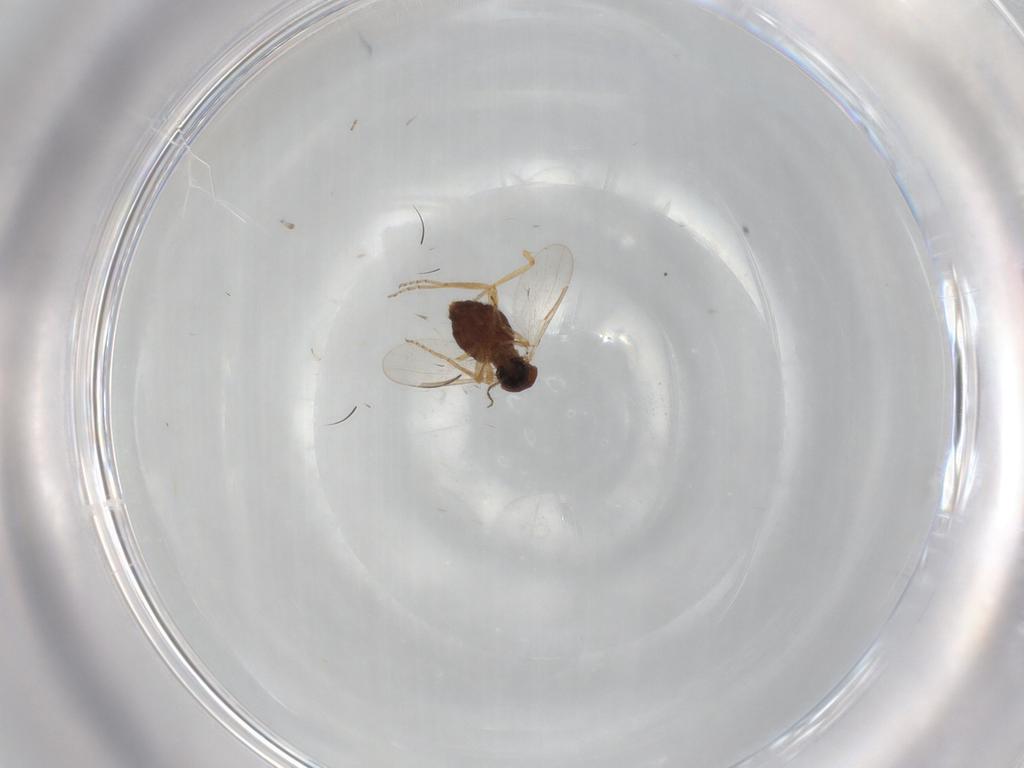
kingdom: Animalia
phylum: Arthropoda
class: Insecta
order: Diptera
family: Ceratopogonidae
